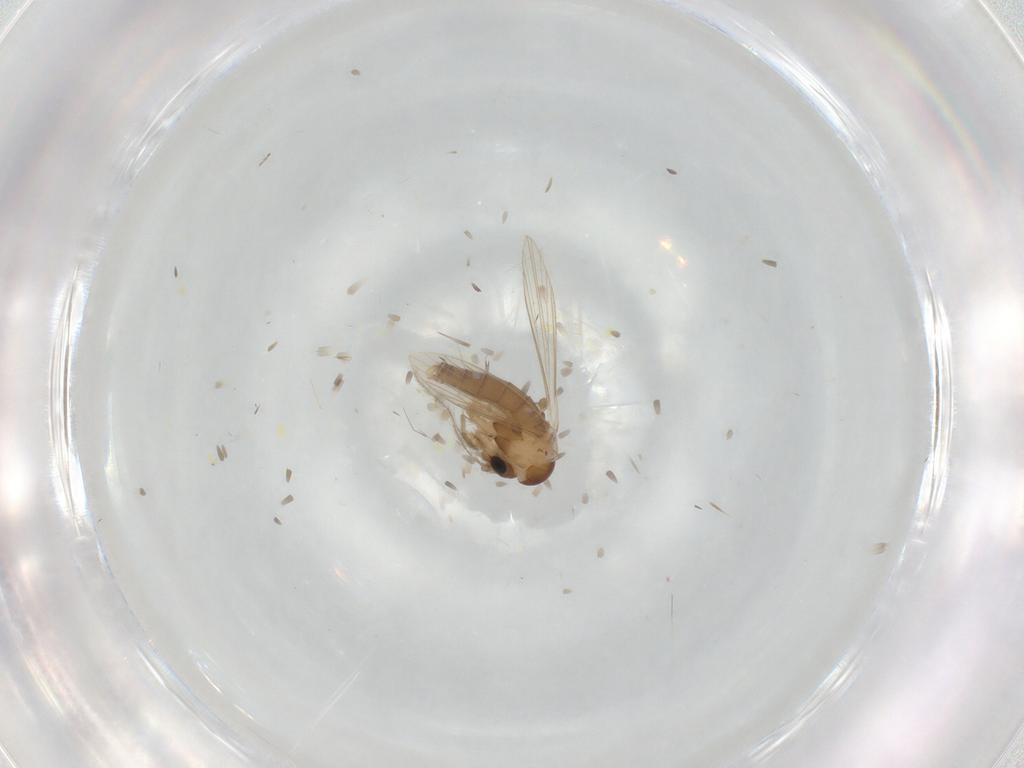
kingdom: Animalia
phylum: Arthropoda
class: Insecta
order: Diptera
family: Psychodidae
